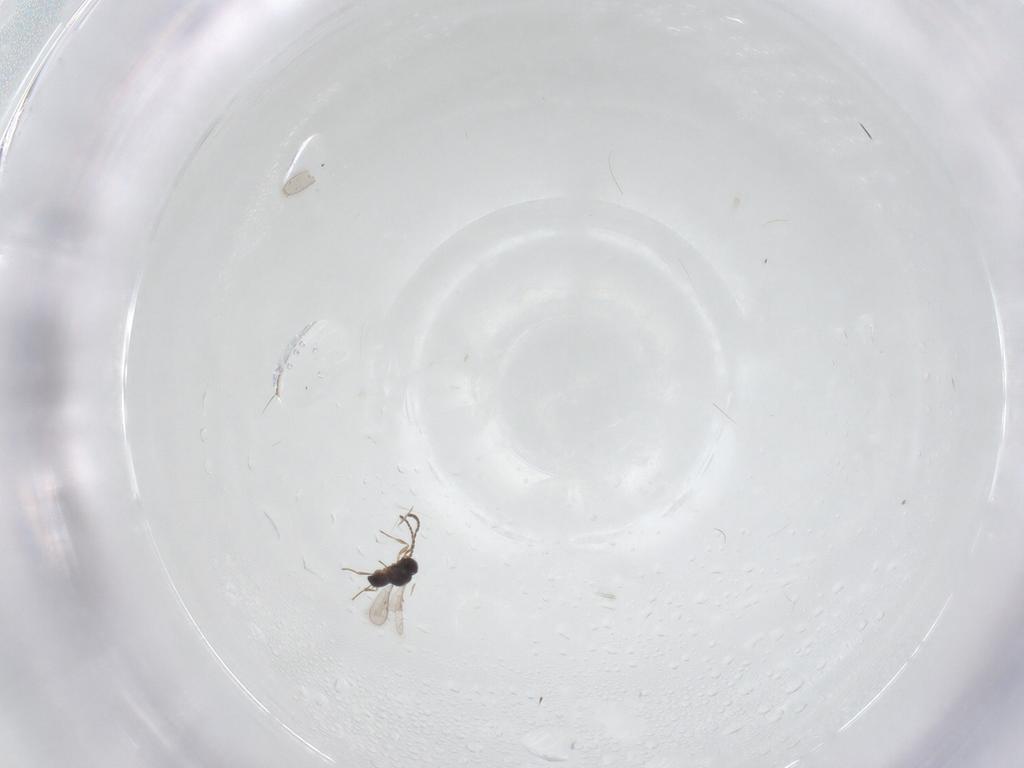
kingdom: Animalia
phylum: Arthropoda
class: Insecta
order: Hymenoptera
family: Scelionidae
